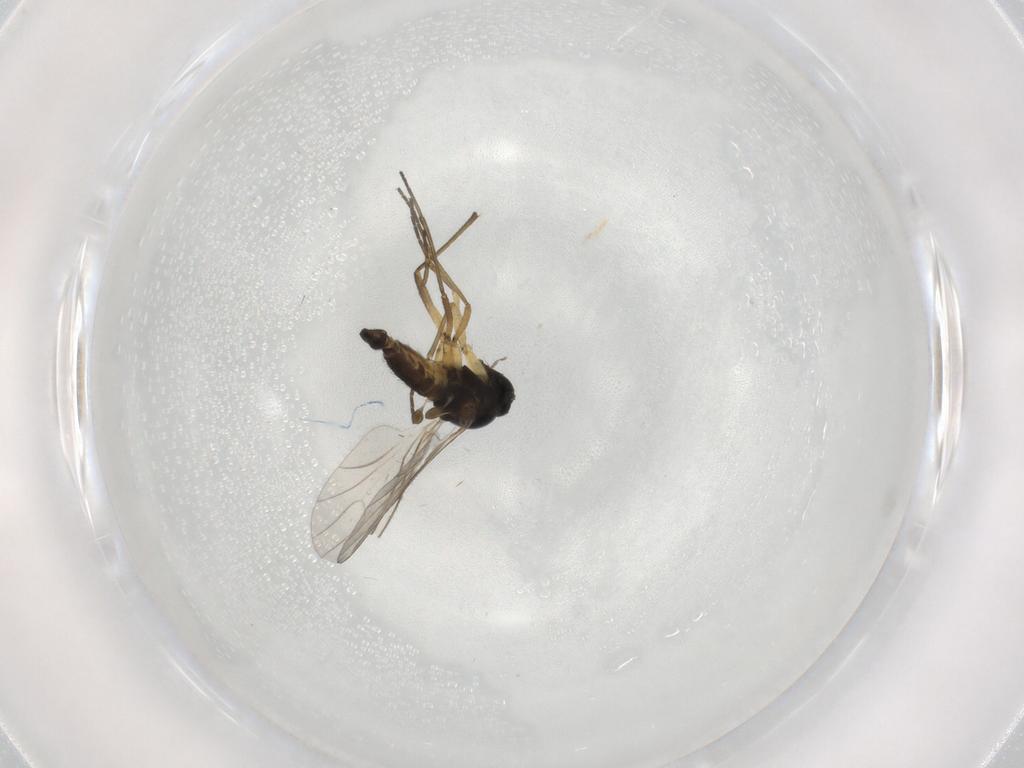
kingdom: Animalia
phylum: Arthropoda
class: Insecta
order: Diptera
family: Sciaridae
